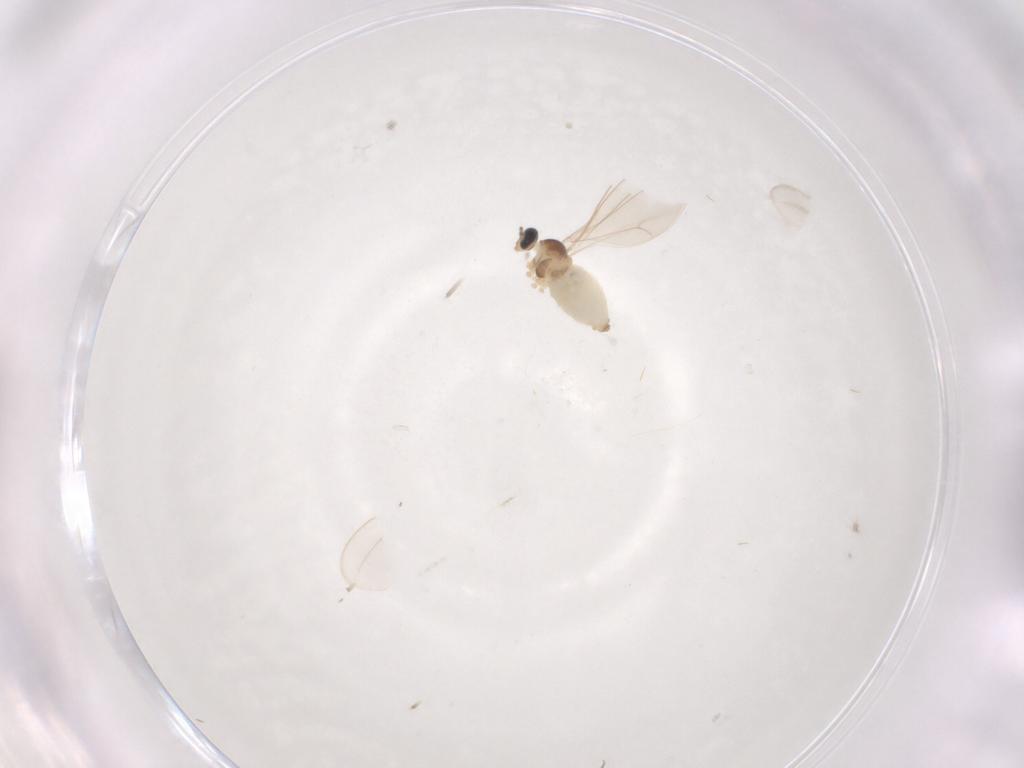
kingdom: Animalia
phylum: Arthropoda
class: Insecta
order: Diptera
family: Cecidomyiidae
